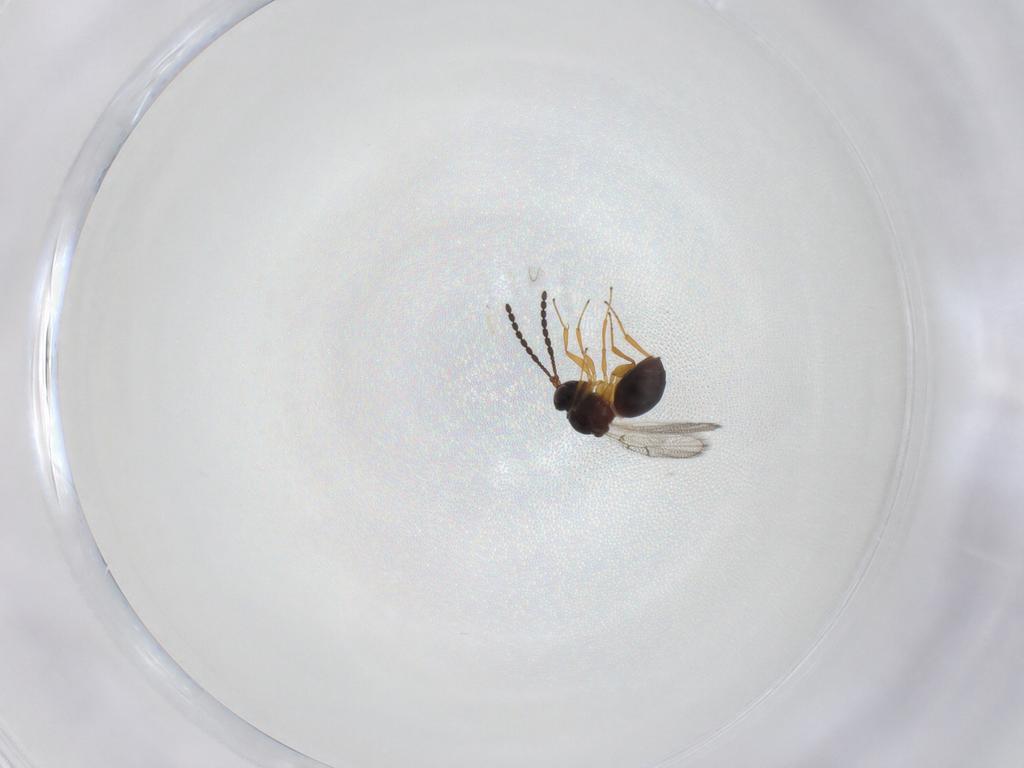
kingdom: Animalia
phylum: Arthropoda
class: Insecta
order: Hymenoptera
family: Figitidae
